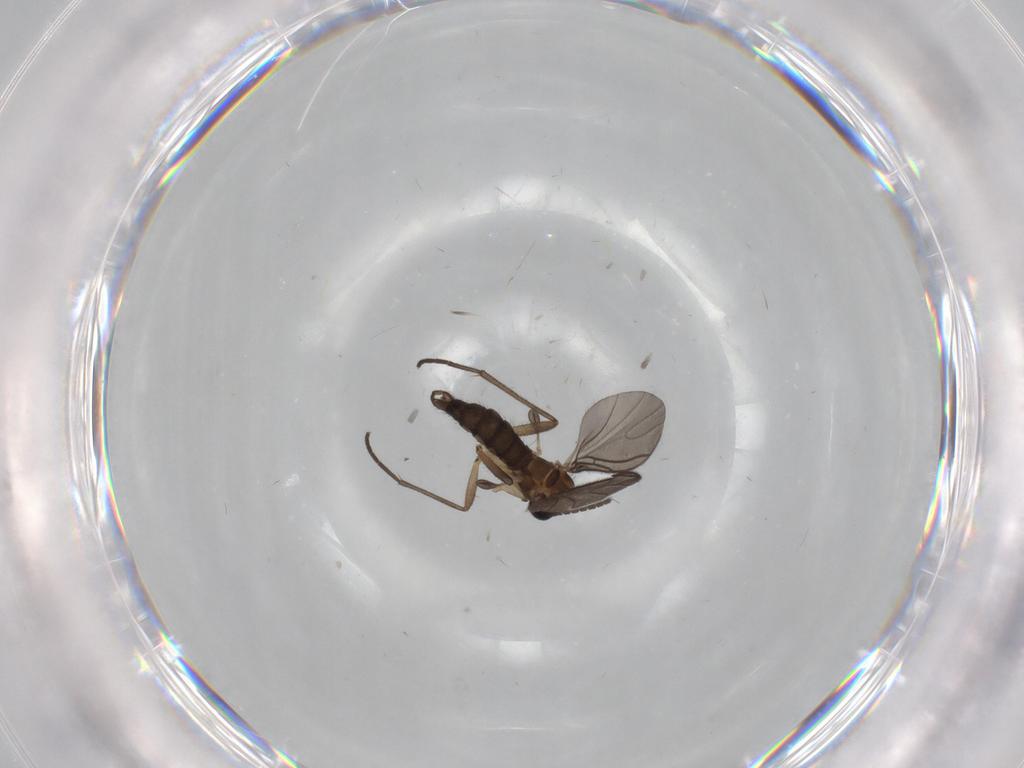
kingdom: Animalia
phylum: Arthropoda
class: Insecta
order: Diptera
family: Sciaridae
